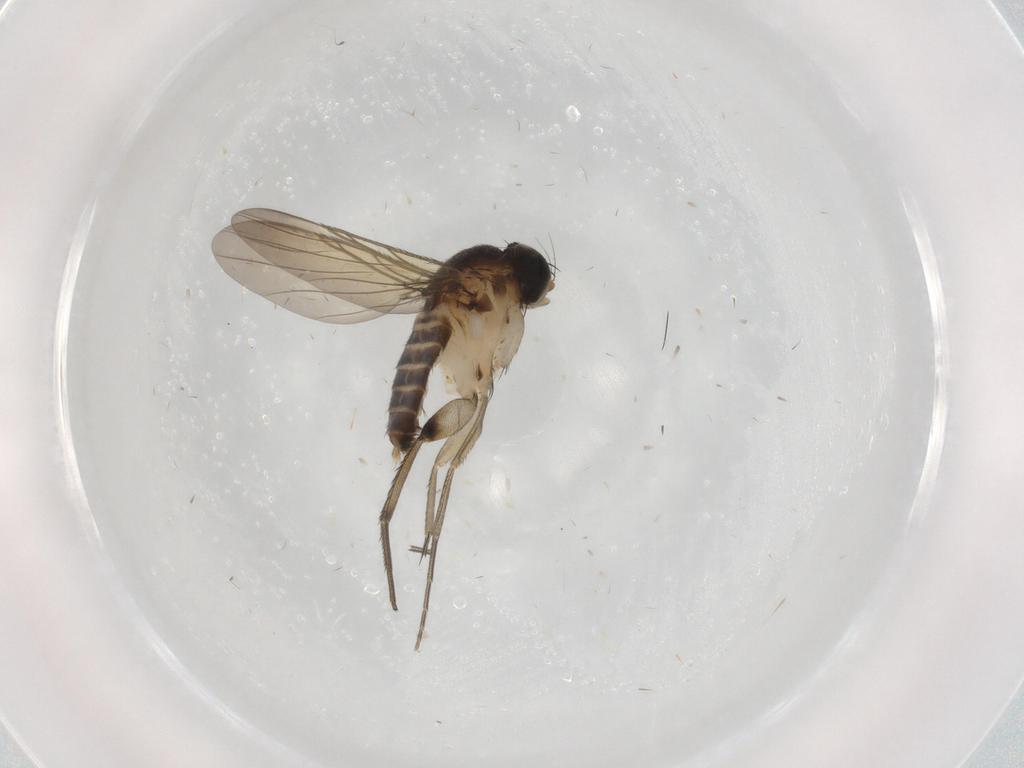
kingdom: Animalia
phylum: Arthropoda
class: Insecta
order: Diptera
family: Phoridae
